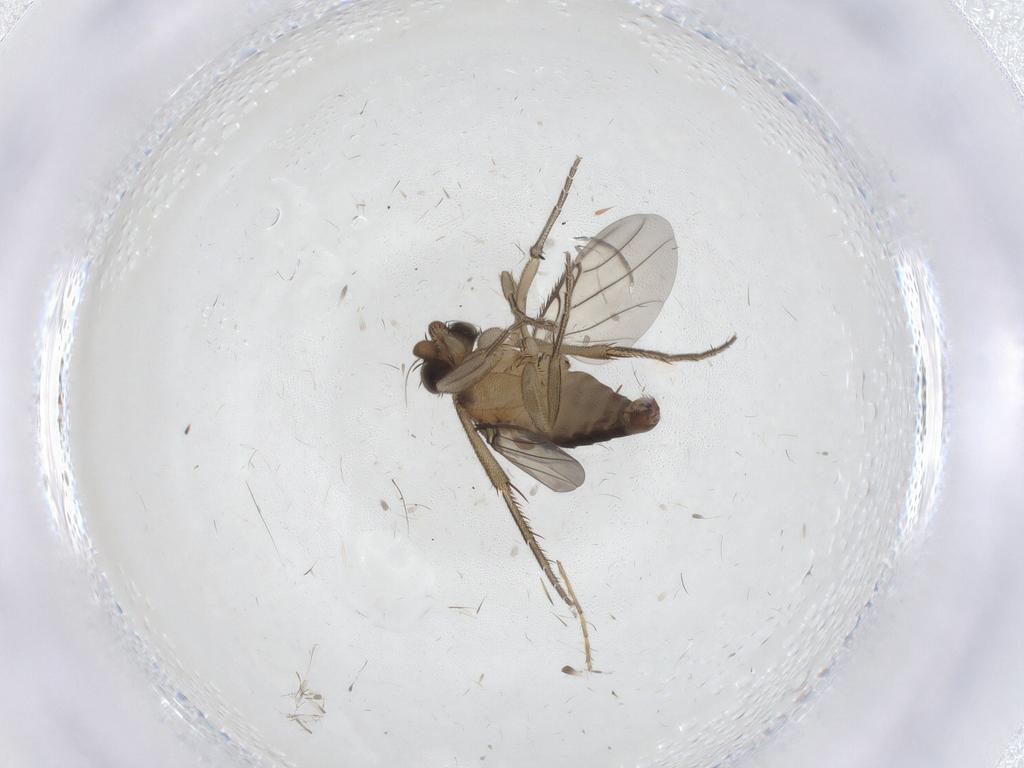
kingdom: Animalia
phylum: Arthropoda
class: Insecta
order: Diptera
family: Phoridae
